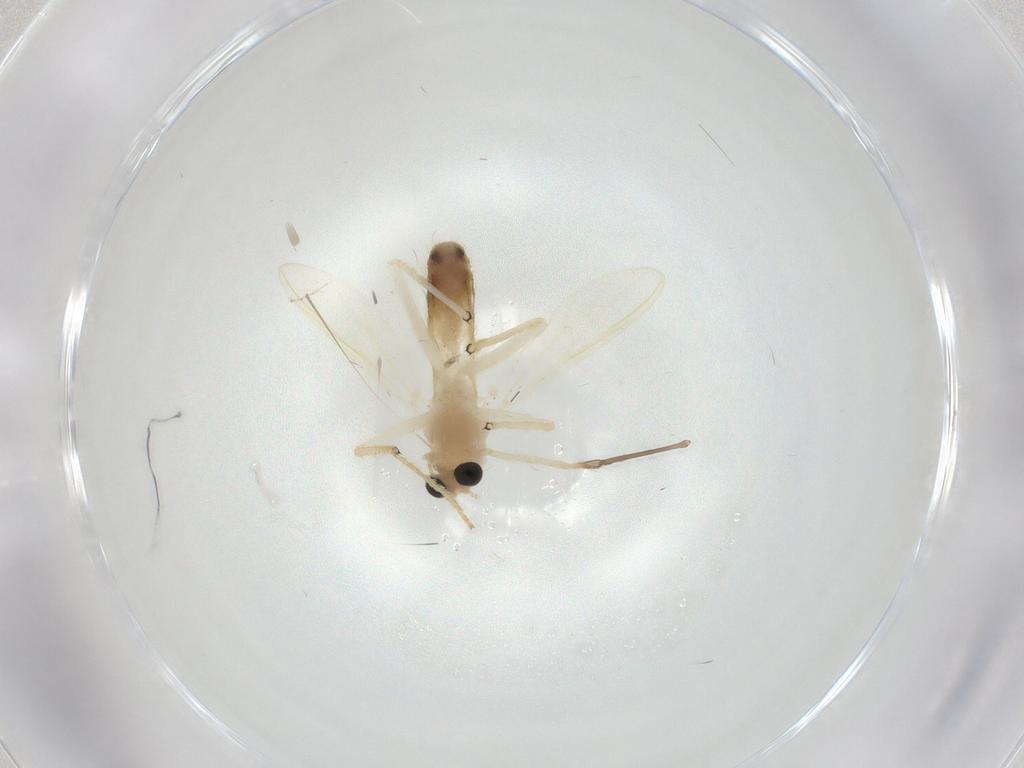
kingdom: Animalia
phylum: Arthropoda
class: Insecta
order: Diptera
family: Chironomidae
